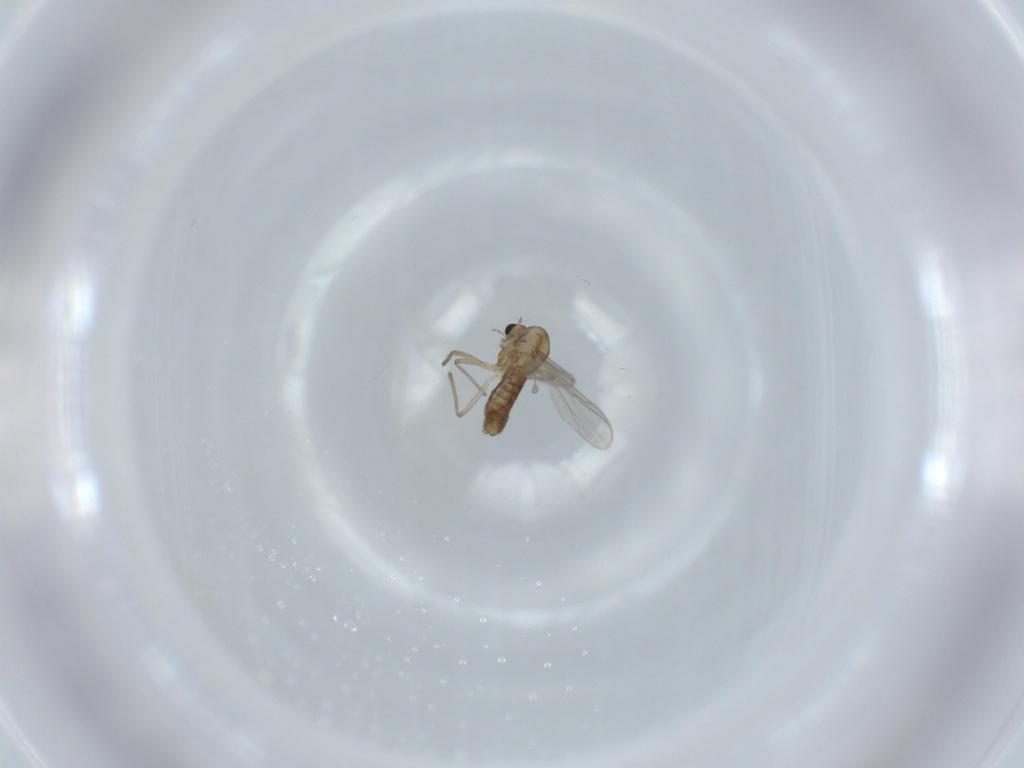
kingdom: Animalia
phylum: Arthropoda
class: Insecta
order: Diptera
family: Chironomidae
